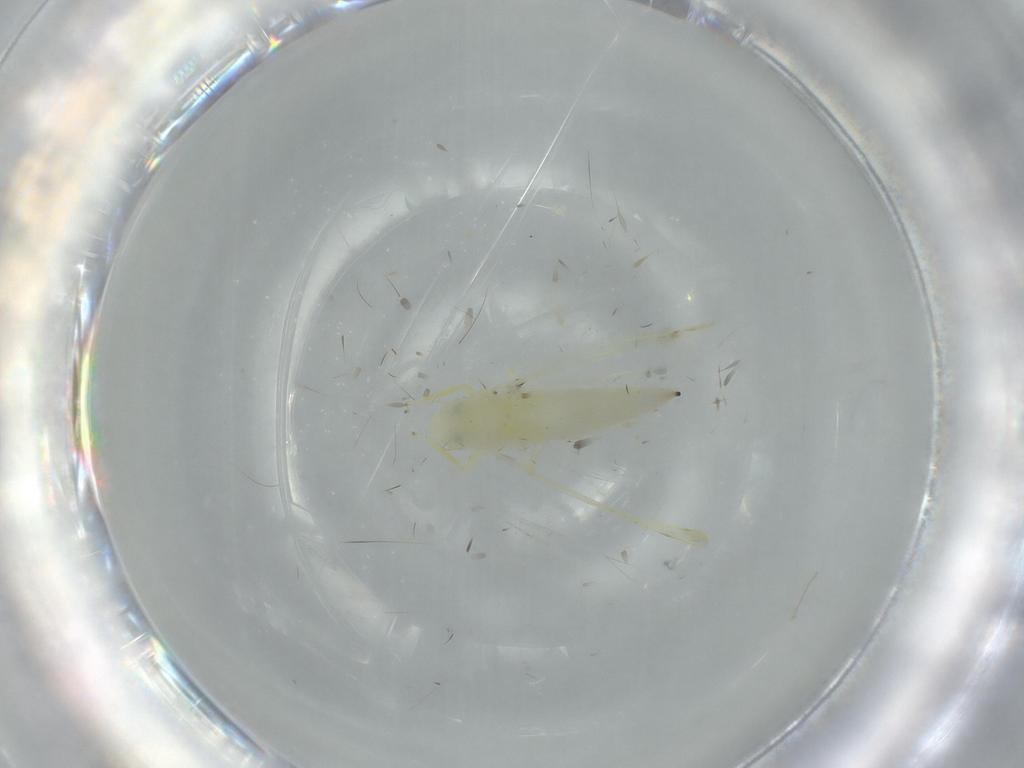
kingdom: Animalia
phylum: Arthropoda
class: Insecta
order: Hemiptera
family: Cicadellidae
